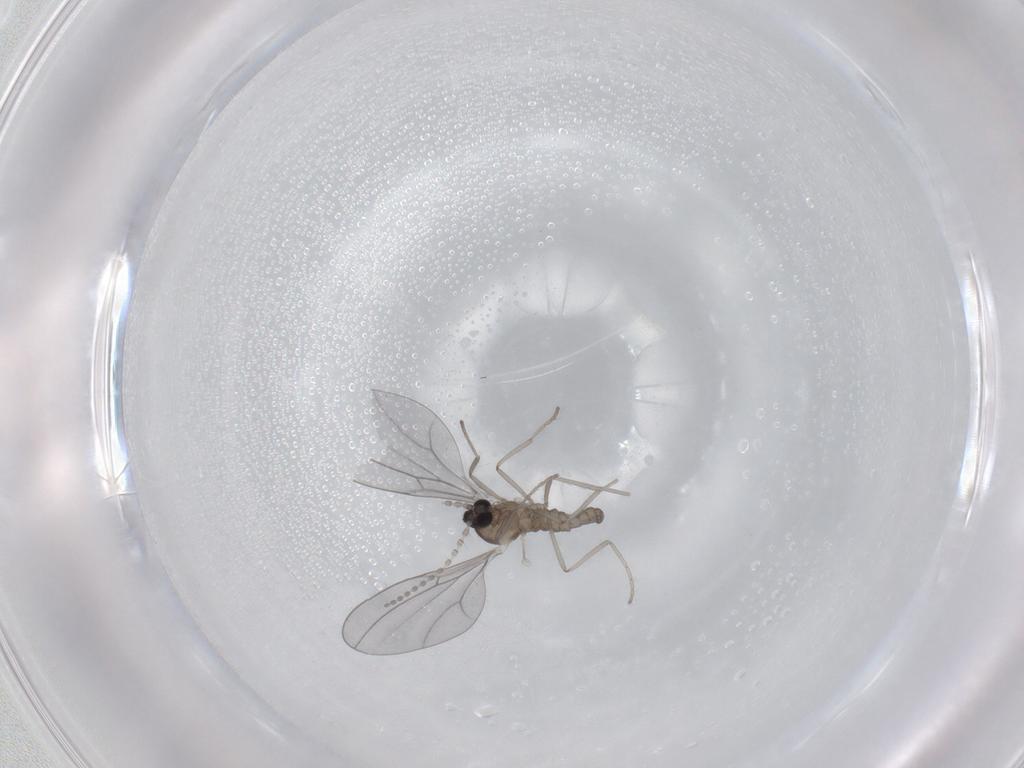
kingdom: Animalia
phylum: Arthropoda
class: Insecta
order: Diptera
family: Cecidomyiidae
